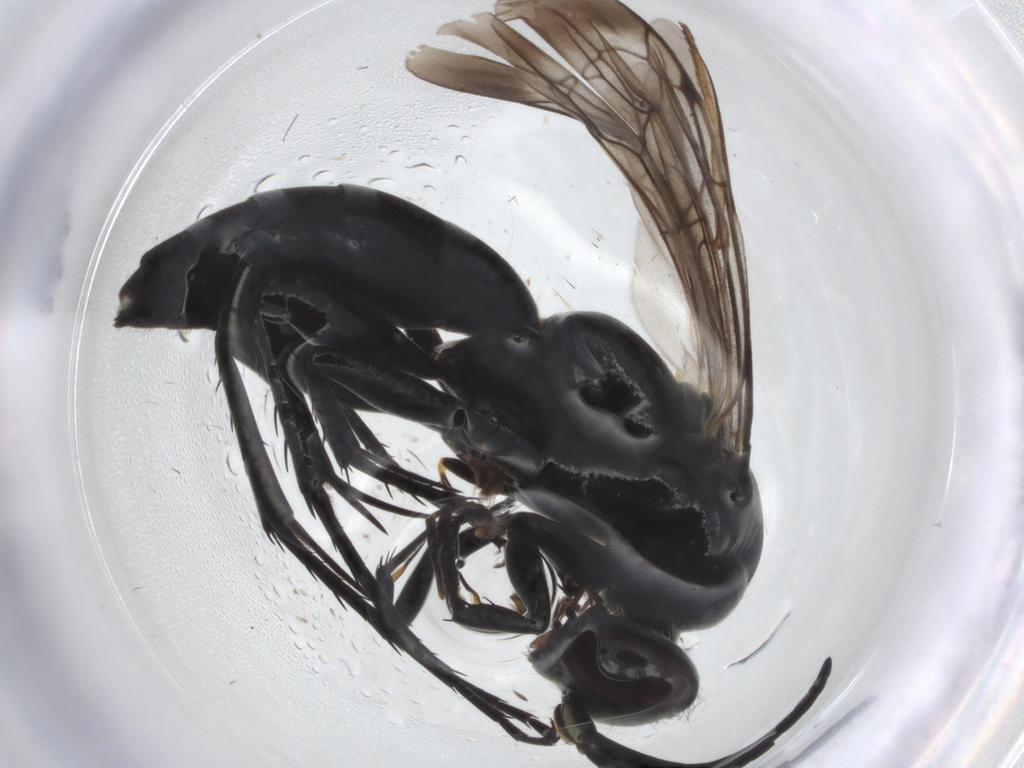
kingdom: Animalia
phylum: Arthropoda
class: Insecta
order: Hymenoptera
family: Pompilidae
